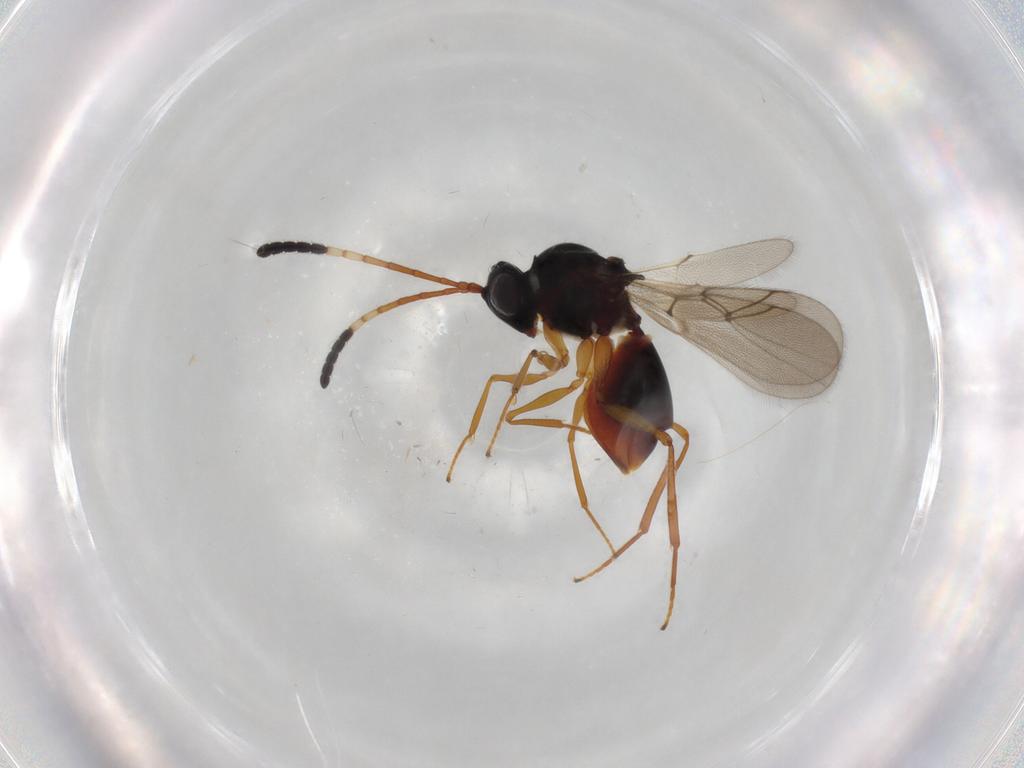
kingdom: Animalia
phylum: Arthropoda
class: Insecta
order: Hymenoptera
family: Figitidae
